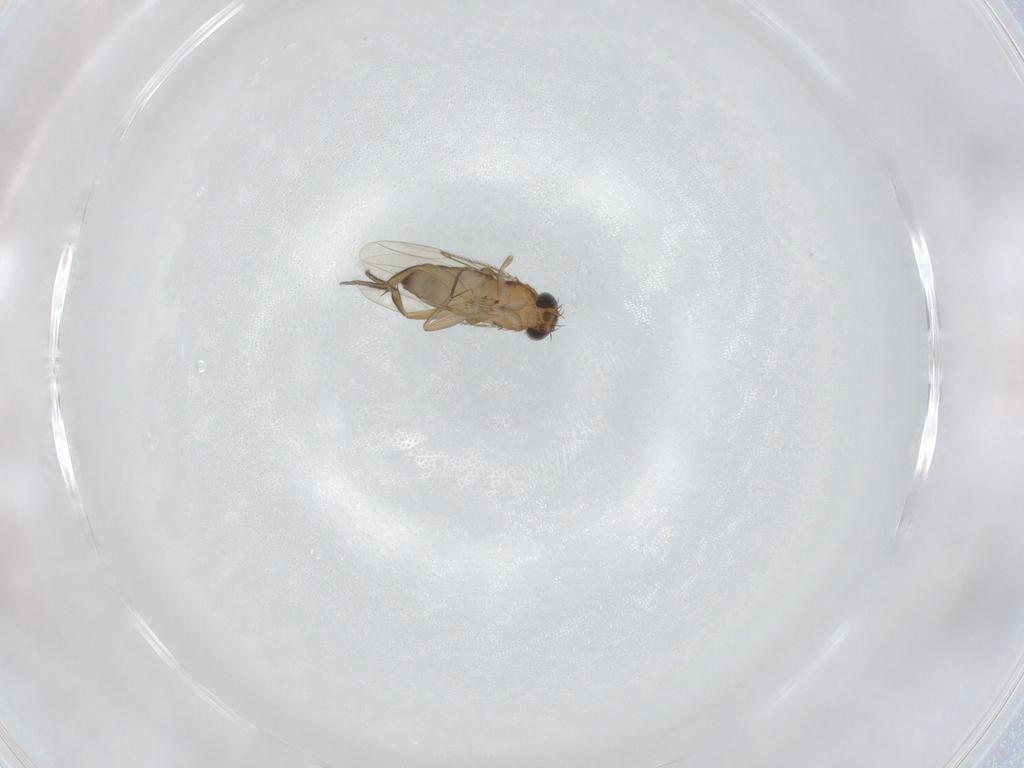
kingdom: Animalia
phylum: Arthropoda
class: Insecta
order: Diptera
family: Phoridae
